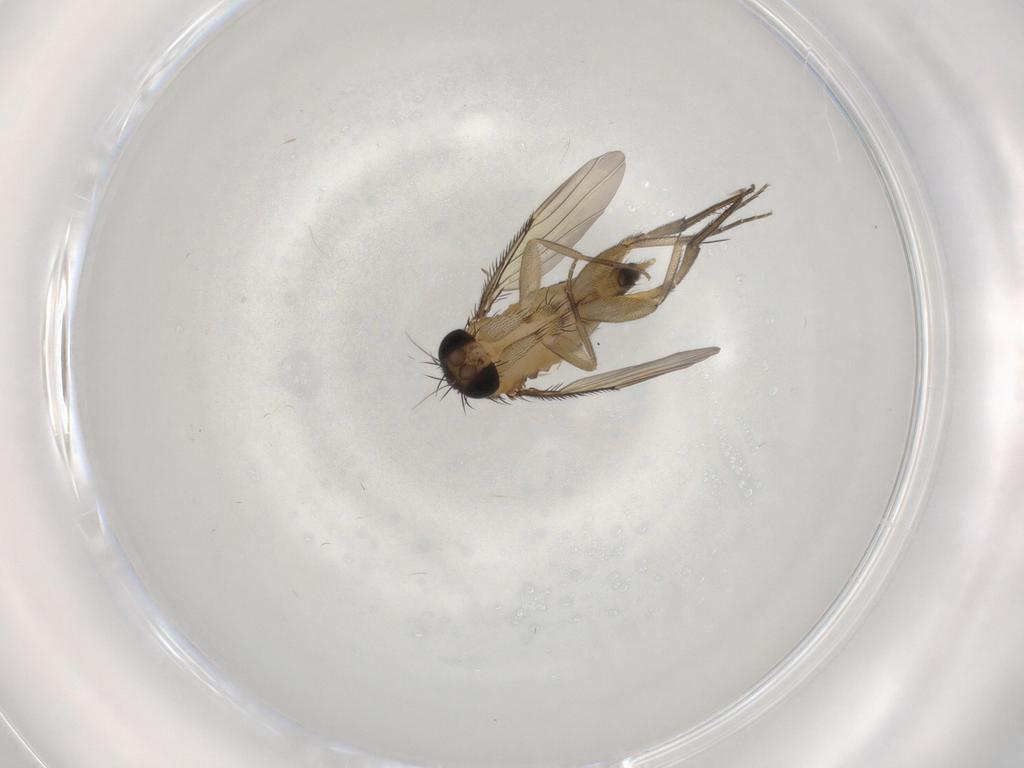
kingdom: Animalia
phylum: Arthropoda
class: Insecta
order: Diptera
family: Phoridae
